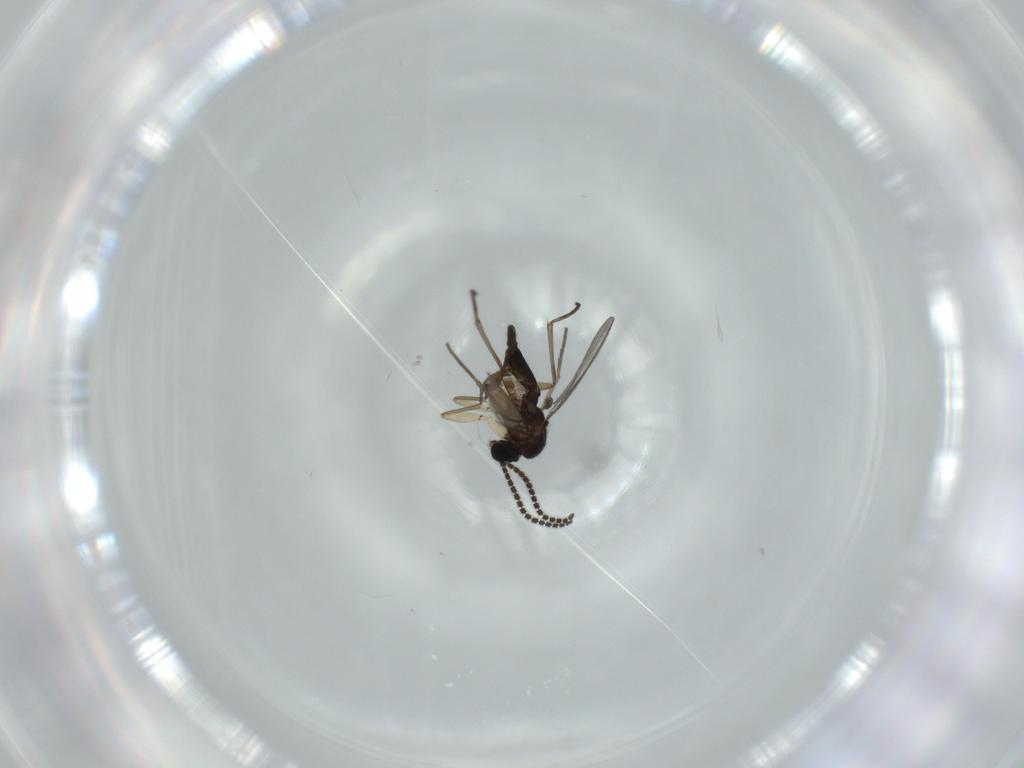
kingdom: Animalia
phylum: Arthropoda
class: Insecta
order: Diptera
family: Sciaridae
